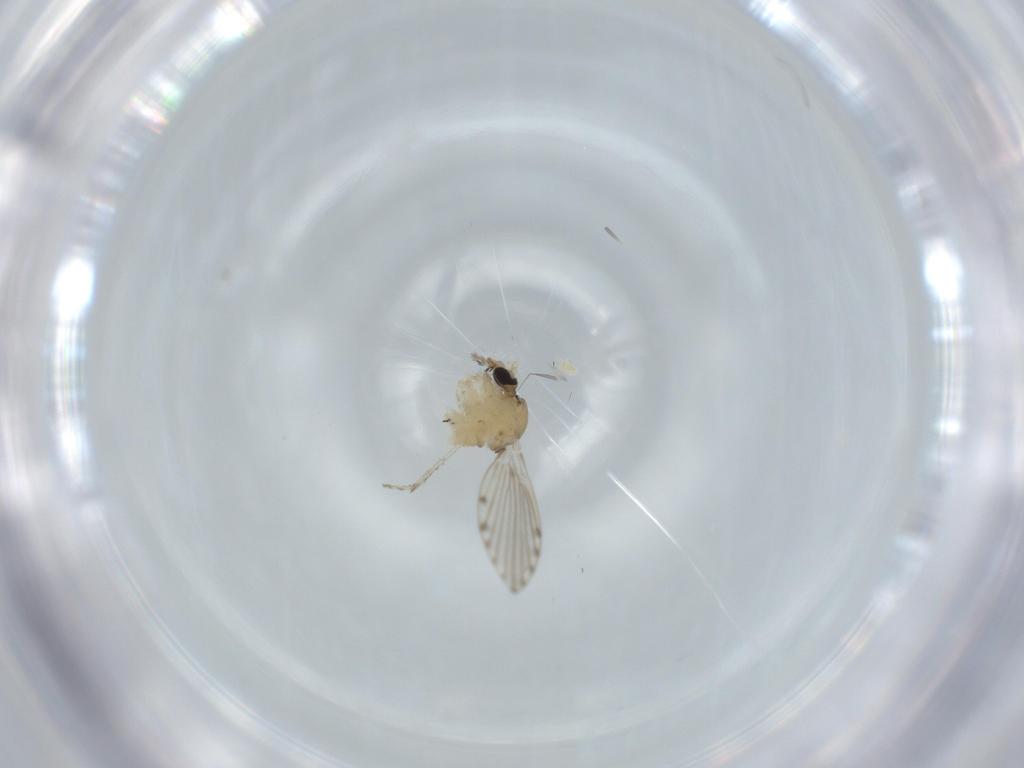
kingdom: Animalia
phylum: Arthropoda
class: Insecta
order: Diptera
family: Psychodidae
